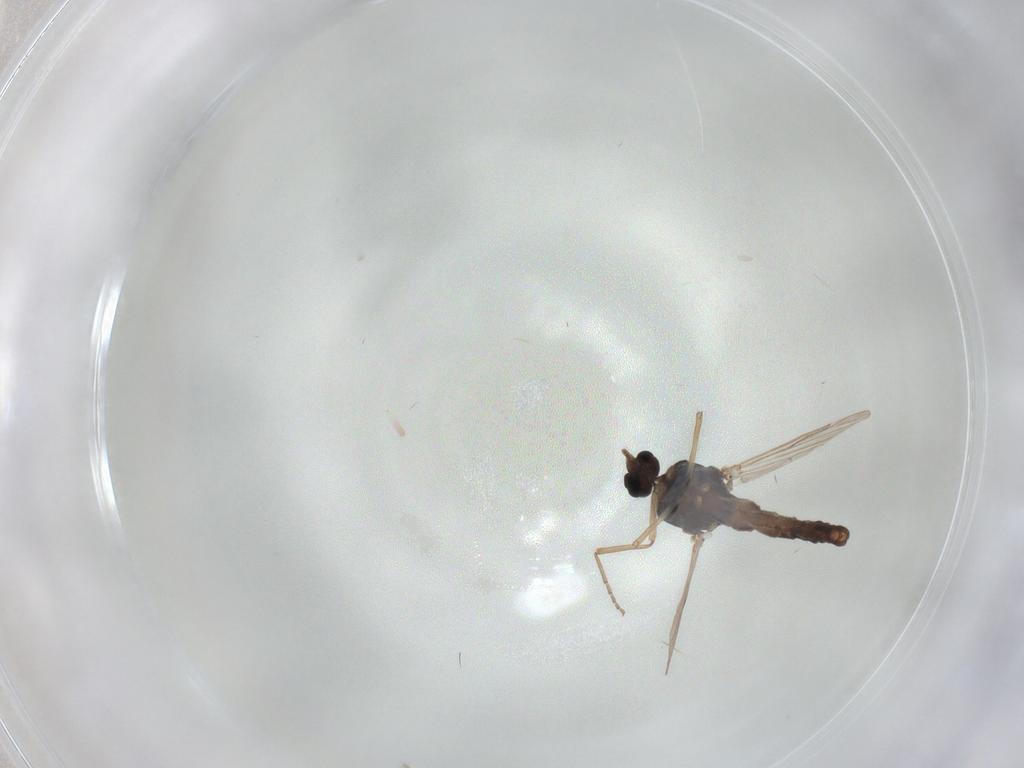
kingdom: Animalia
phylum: Arthropoda
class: Insecta
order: Diptera
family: Ceratopogonidae
